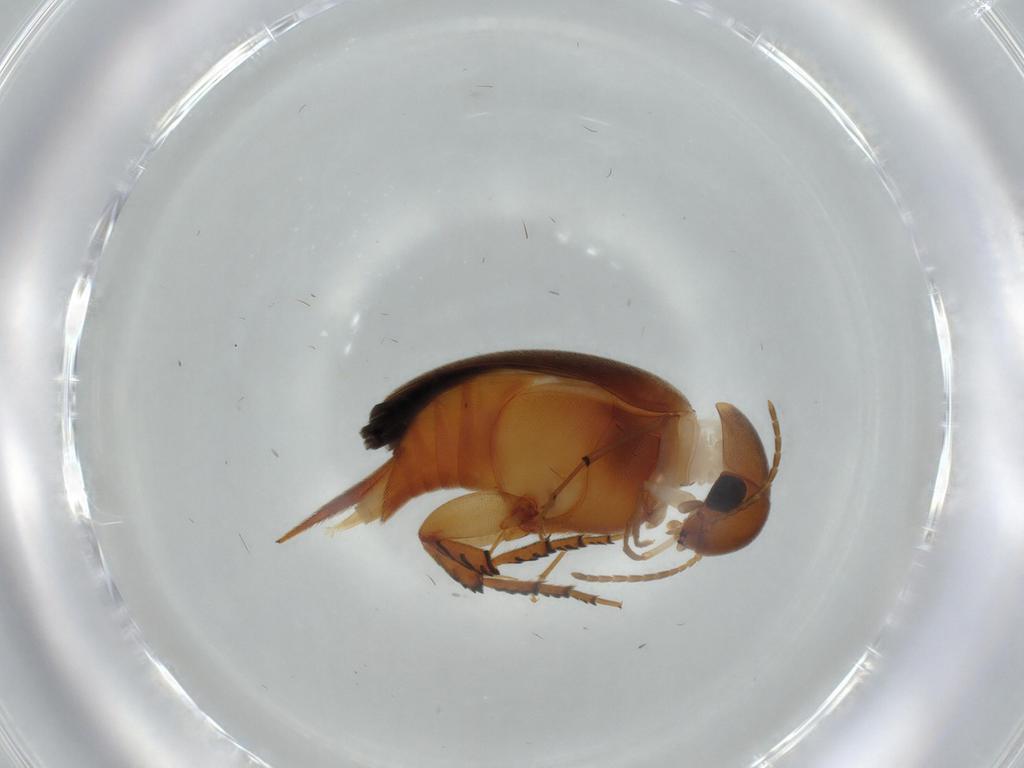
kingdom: Animalia
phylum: Arthropoda
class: Insecta
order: Coleoptera
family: Mordellidae
